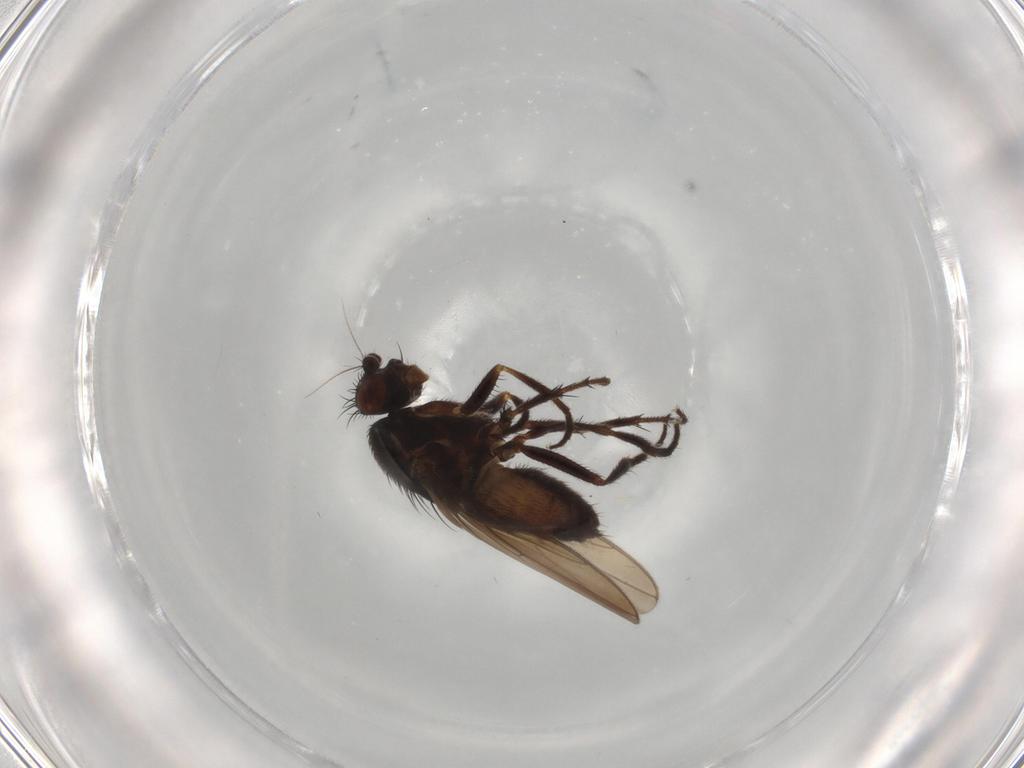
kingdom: Animalia
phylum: Arthropoda
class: Insecta
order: Diptera
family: Sphaeroceridae
